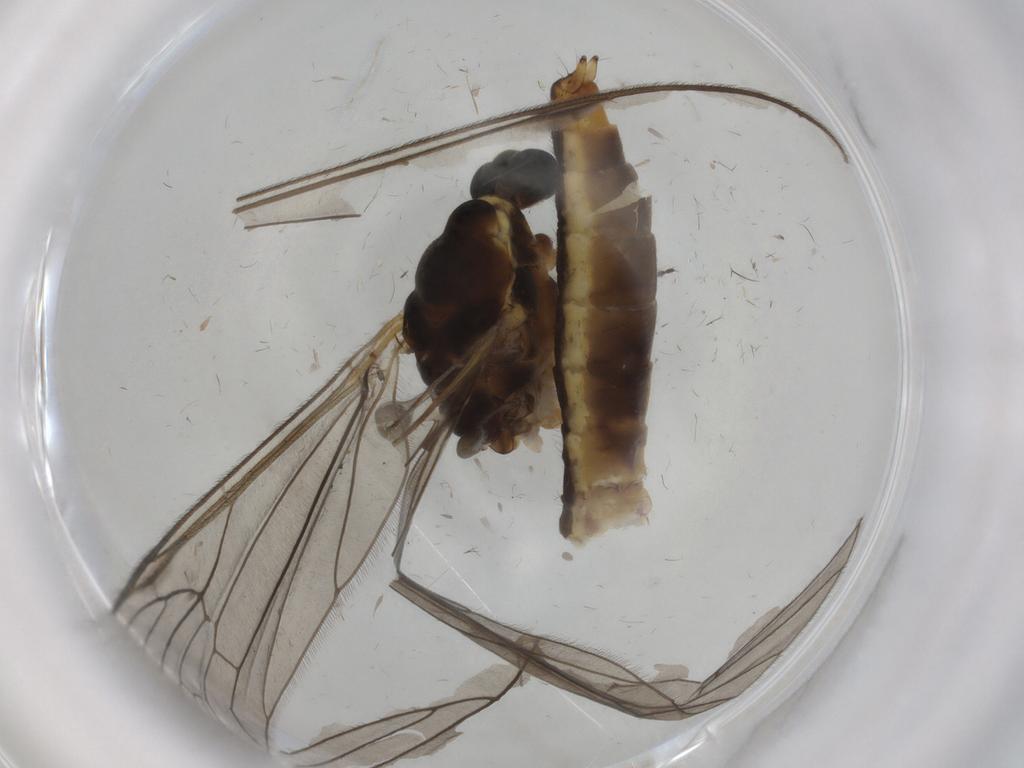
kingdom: Animalia
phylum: Arthropoda
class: Insecta
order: Diptera
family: Limoniidae
